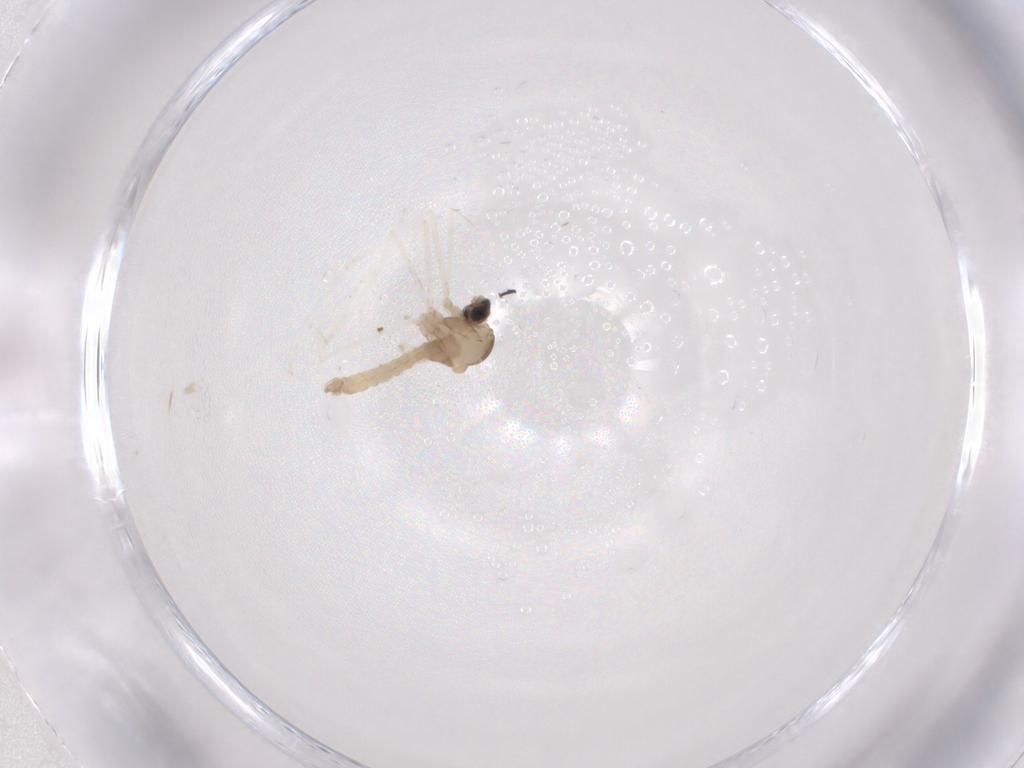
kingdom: Animalia
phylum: Arthropoda
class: Insecta
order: Diptera
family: Cecidomyiidae
